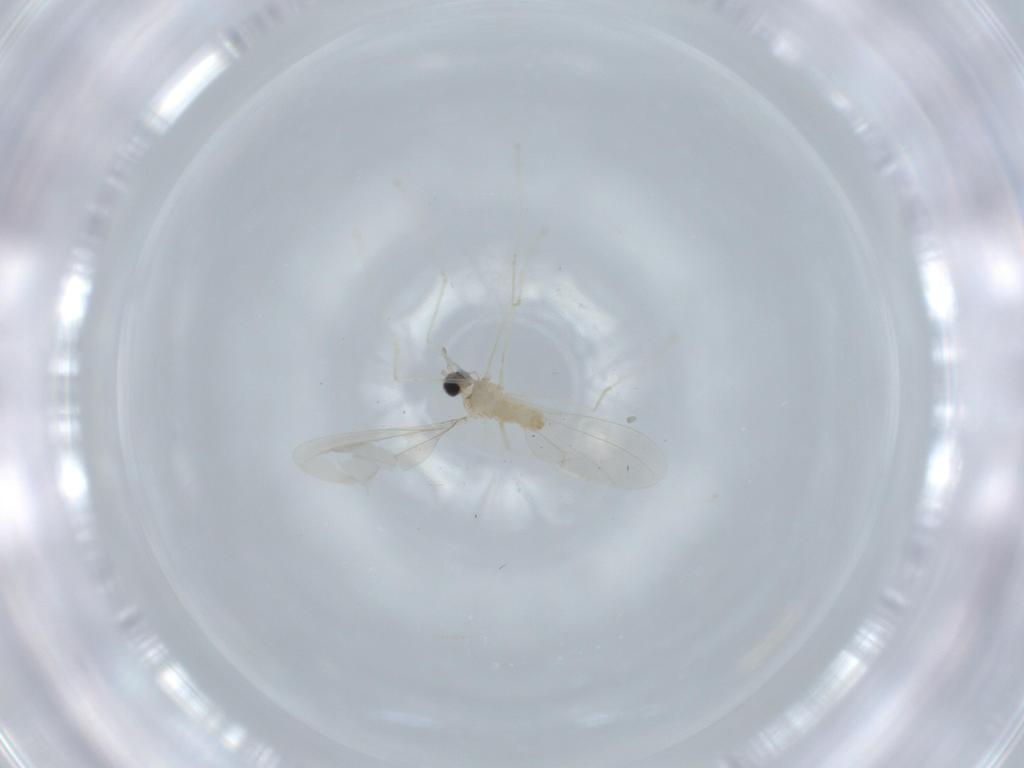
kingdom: Animalia
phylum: Arthropoda
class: Insecta
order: Diptera
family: Cecidomyiidae
